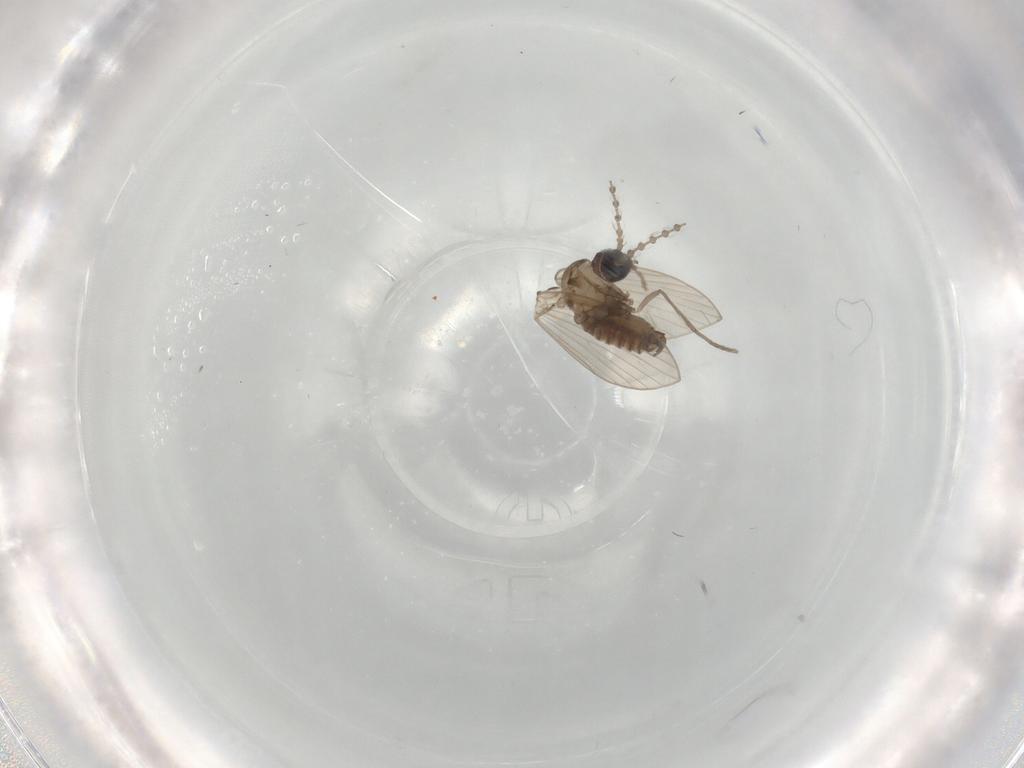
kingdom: Animalia
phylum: Arthropoda
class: Insecta
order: Diptera
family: Psychodidae
